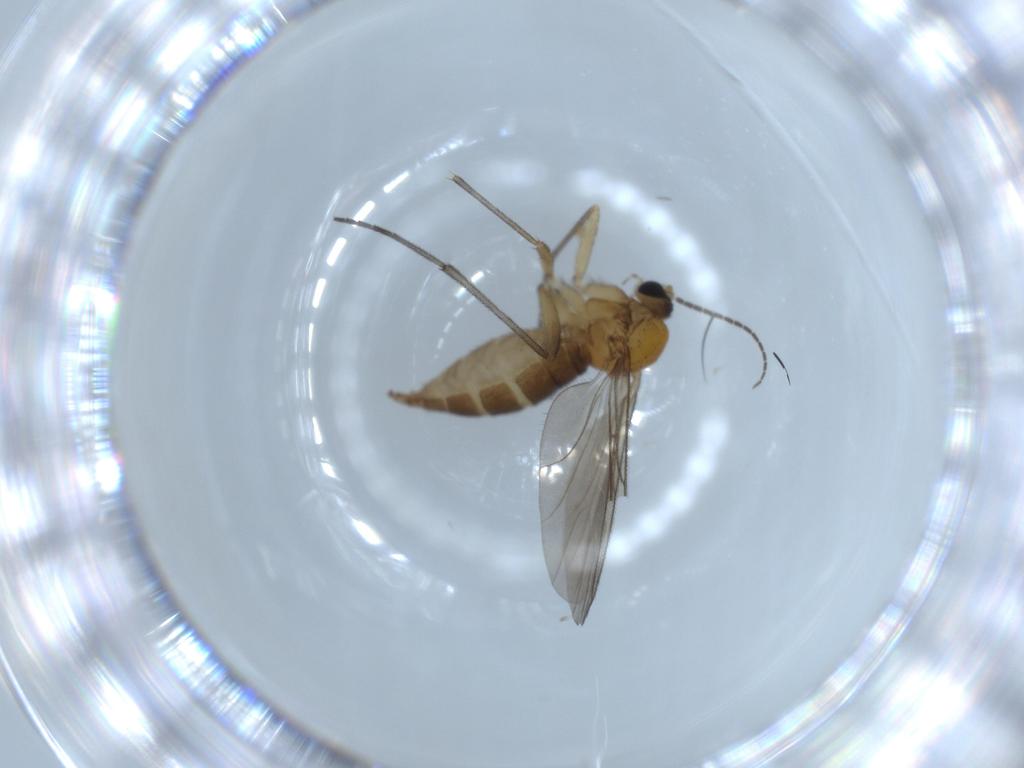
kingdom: Animalia
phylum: Arthropoda
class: Insecta
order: Diptera
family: Sciaridae
